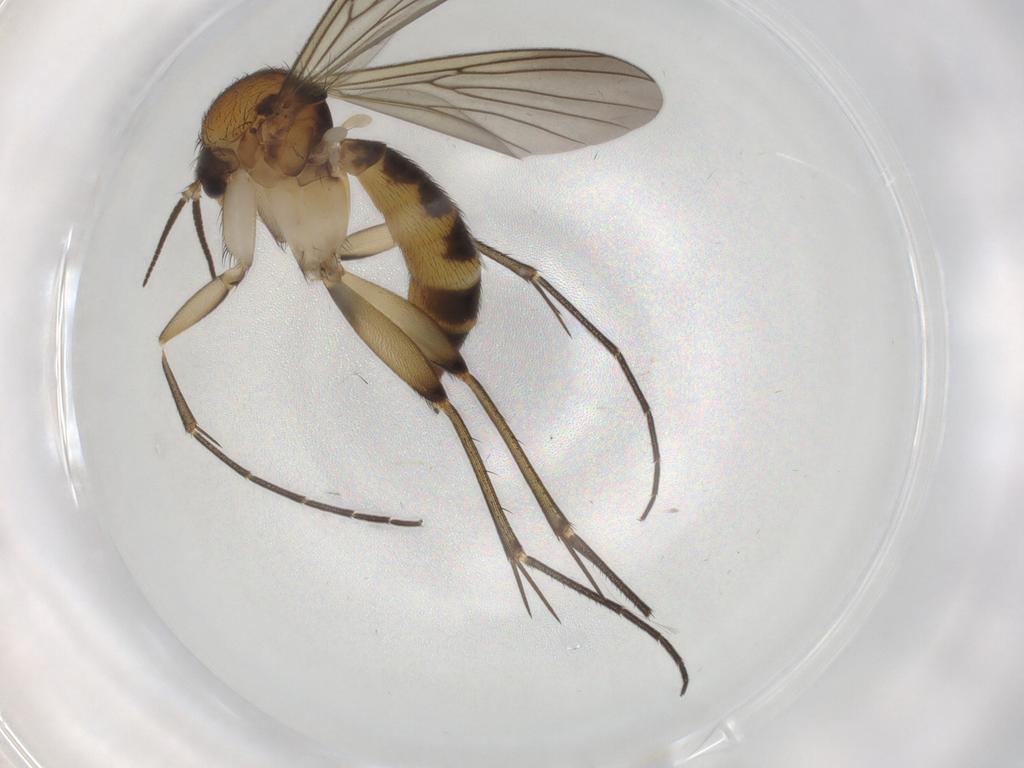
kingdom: Animalia
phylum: Arthropoda
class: Insecta
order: Diptera
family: Mycetophilidae
